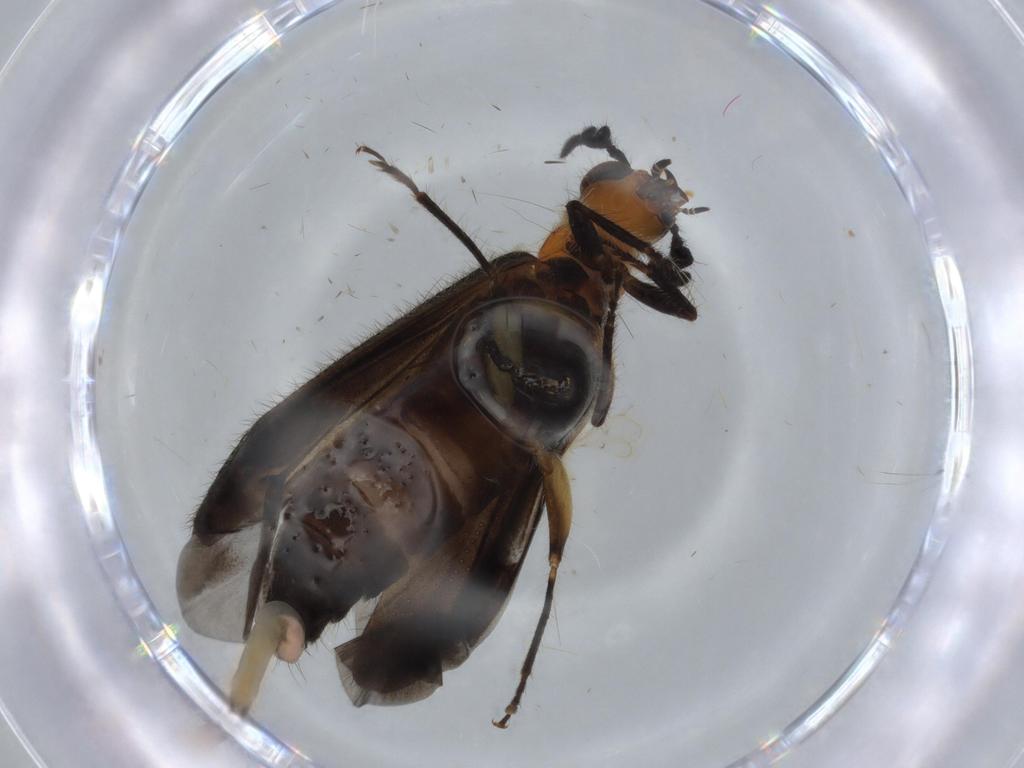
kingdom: Animalia
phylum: Arthropoda
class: Insecta
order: Coleoptera
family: Scraptiidae
